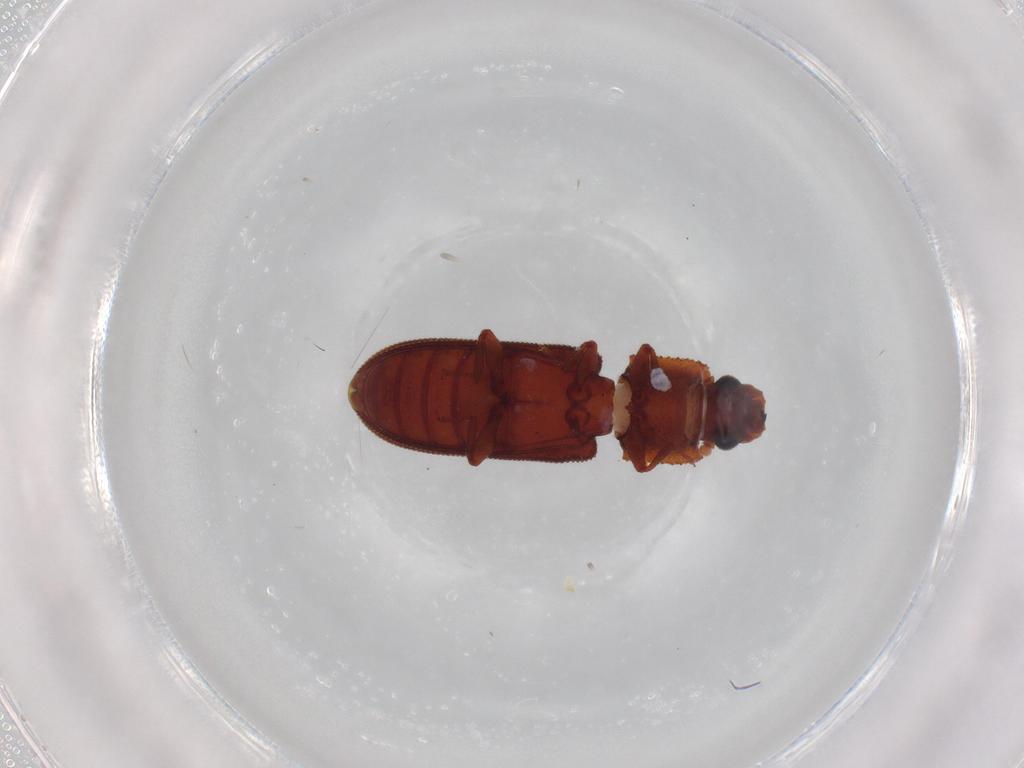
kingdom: Animalia
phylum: Arthropoda
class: Insecta
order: Coleoptera
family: Zopheridae
